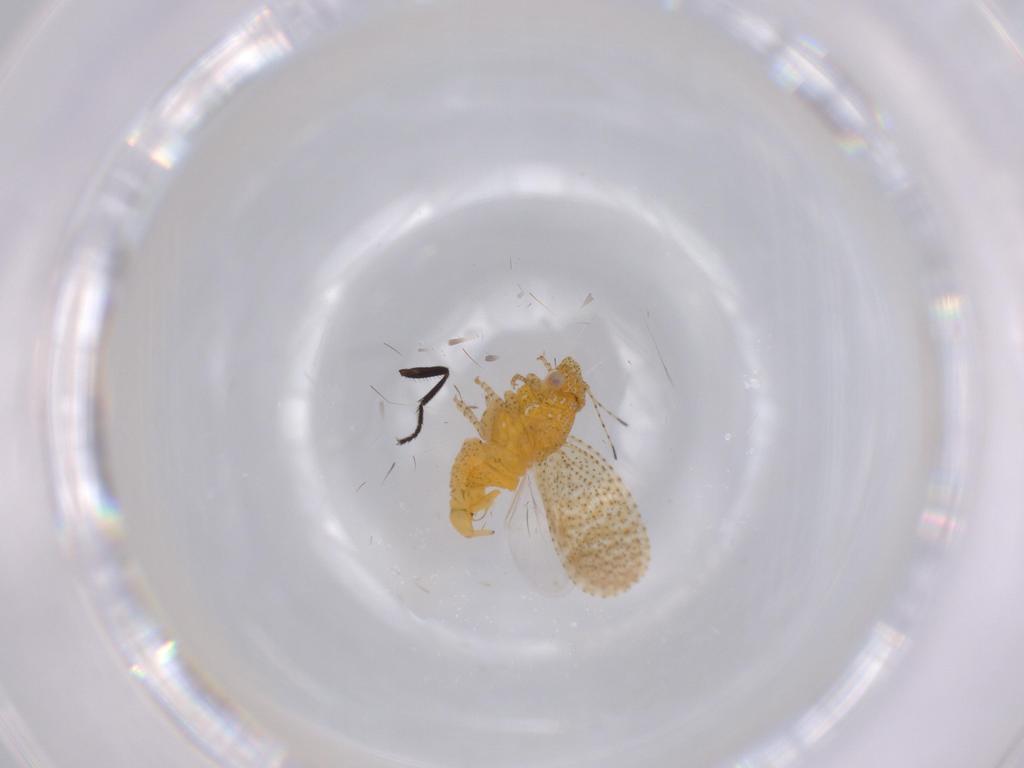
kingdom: Animalia
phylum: Arthropoda
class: Insecta
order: Hemiptera
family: Psyllidae
